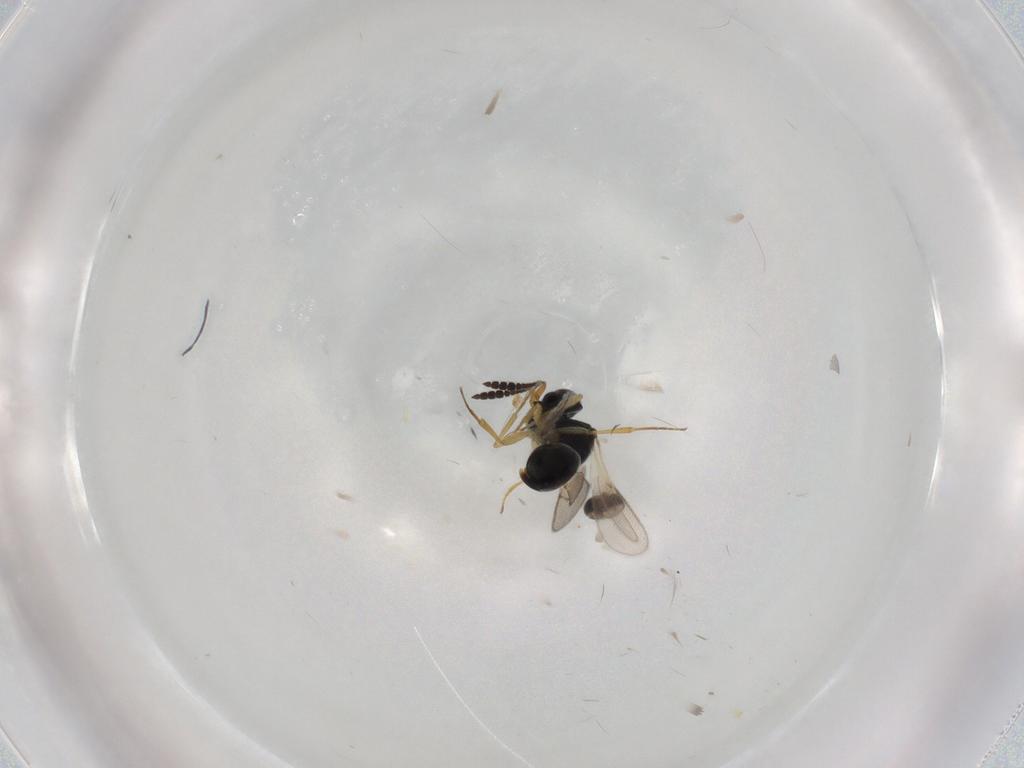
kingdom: Animalia
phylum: Arthropoda
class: Insecta
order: Hymenoptera
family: Scelionidae
